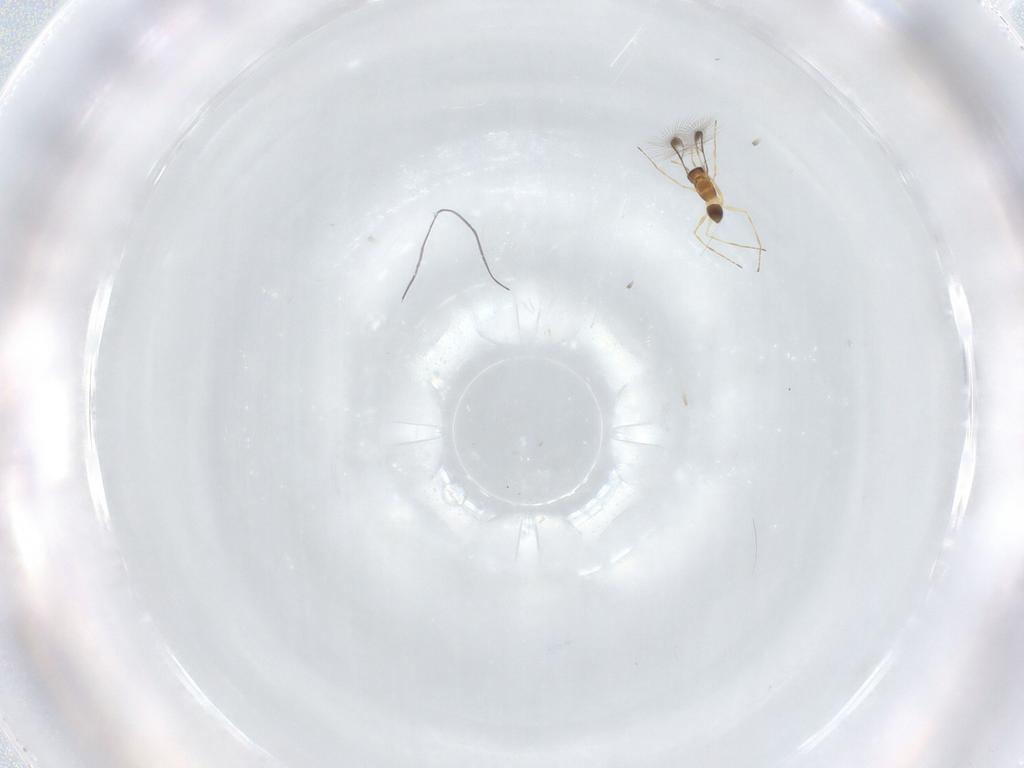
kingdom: Animalia
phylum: Arthropoda
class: Insecta
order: Hymenoptera
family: Mymaridae
